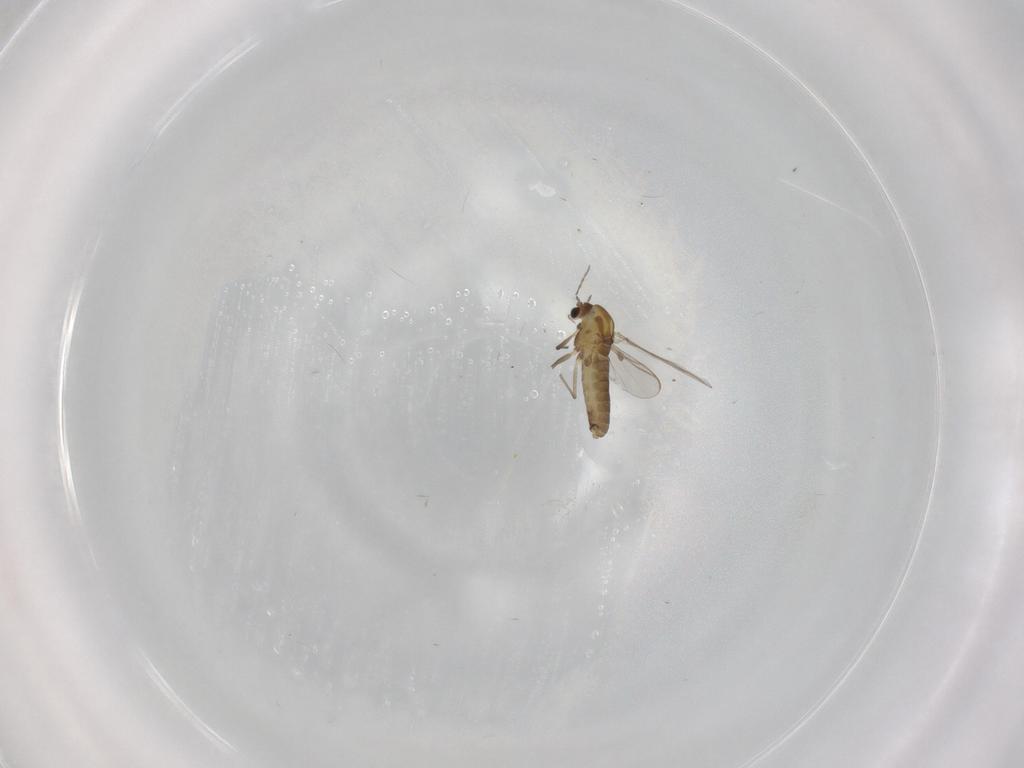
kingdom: Animalia
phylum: Arthropoda
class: Insecta
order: Diptera
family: Chironomidae
